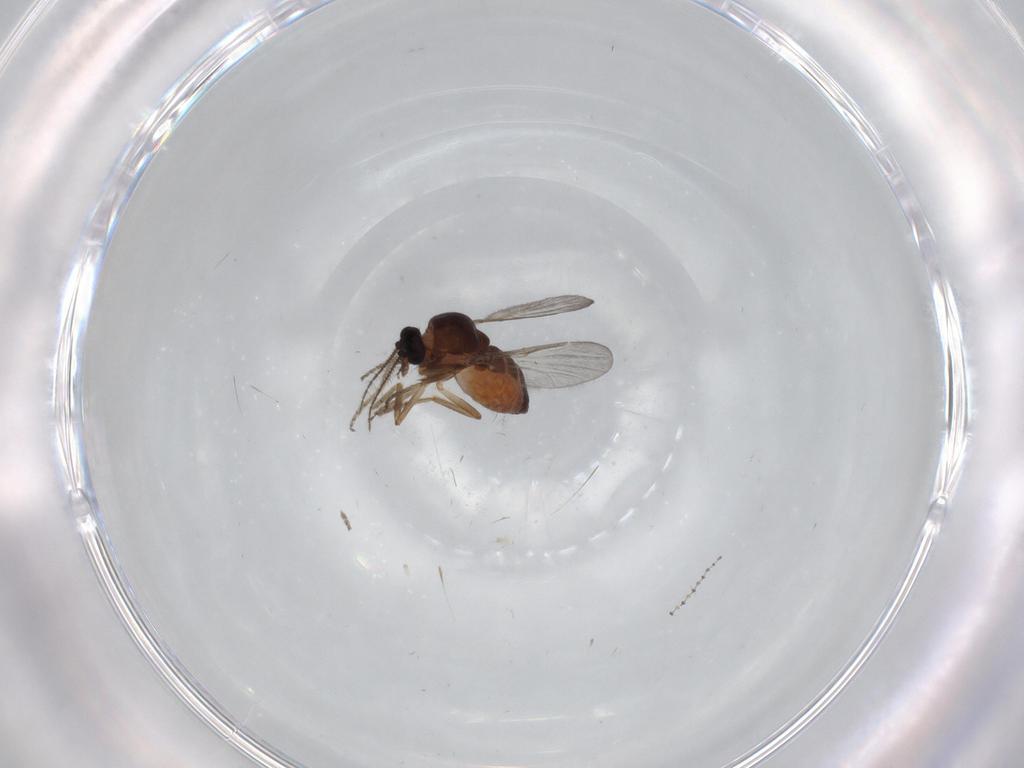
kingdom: Animalia
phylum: Arthropoda
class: Insecta
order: Diptera
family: Ceratopogonidae
